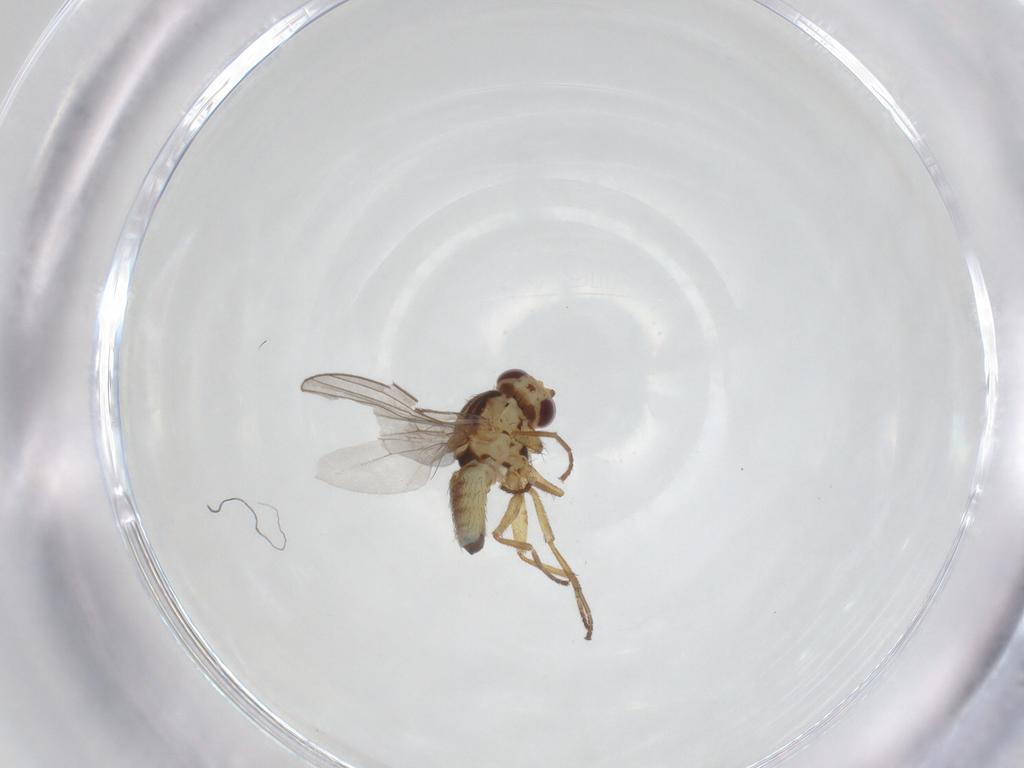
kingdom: Animalia
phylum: Arthropoda
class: Insecta
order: Diptera
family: Agromyzidae
